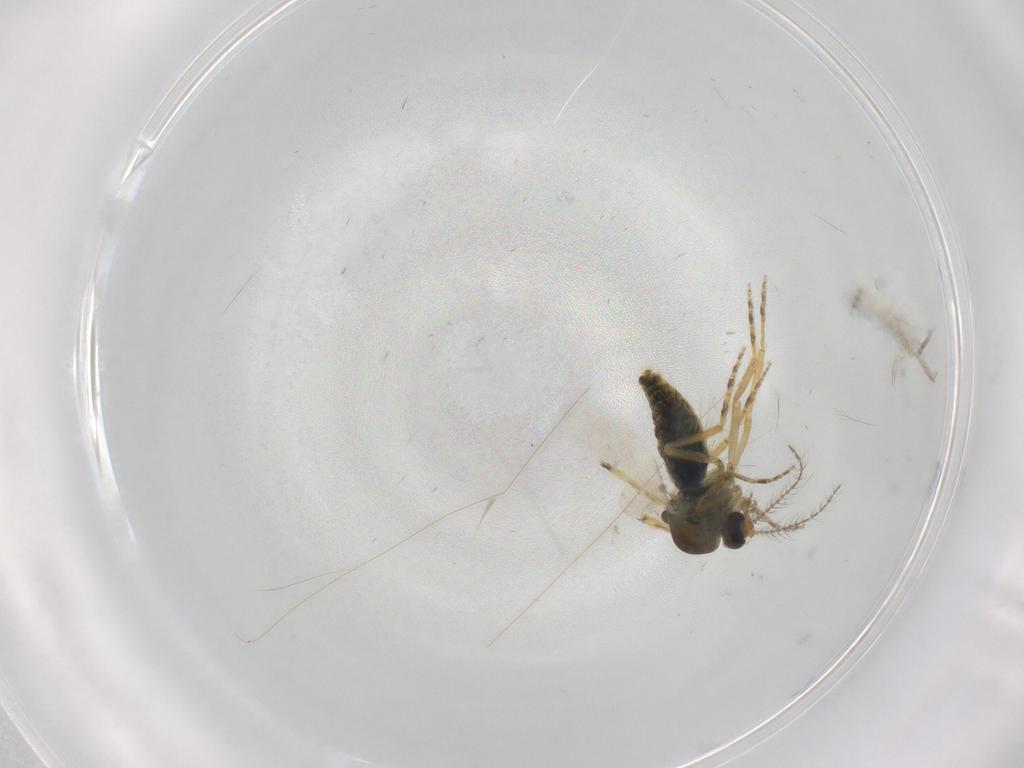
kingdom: Animalia
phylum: Arthropoda
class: Insecta
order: Diptera
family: Ceratopogonidae
